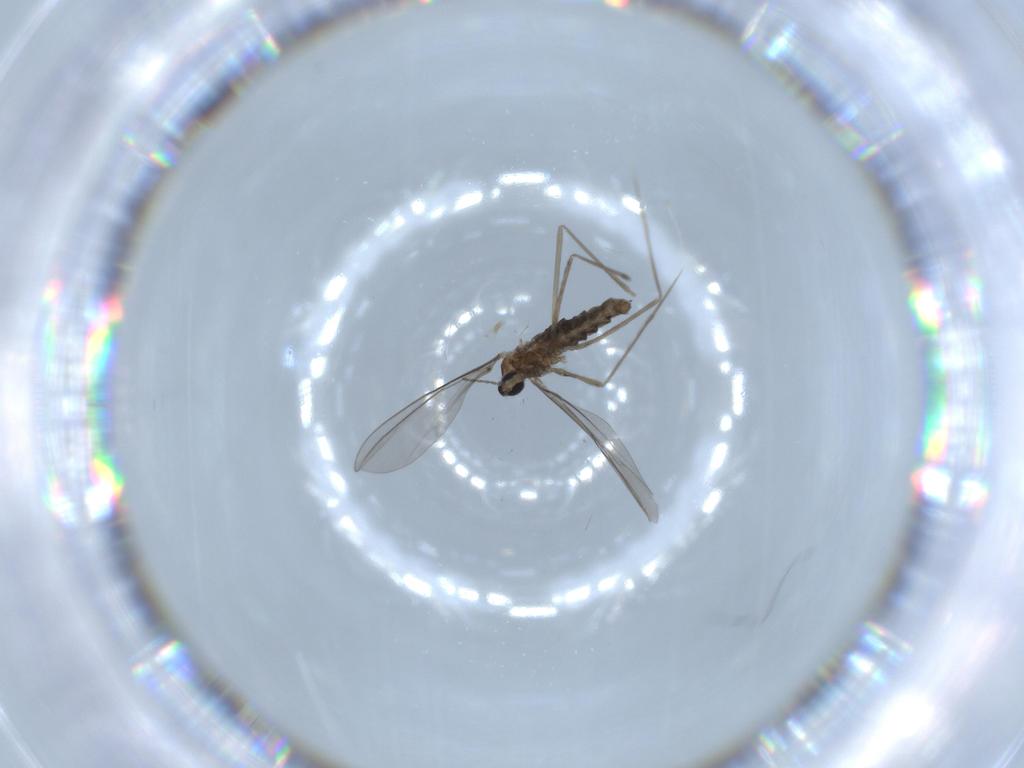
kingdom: Animalia
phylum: Arthropoda
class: Insecta
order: Diptera
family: Cecidomyiidae
